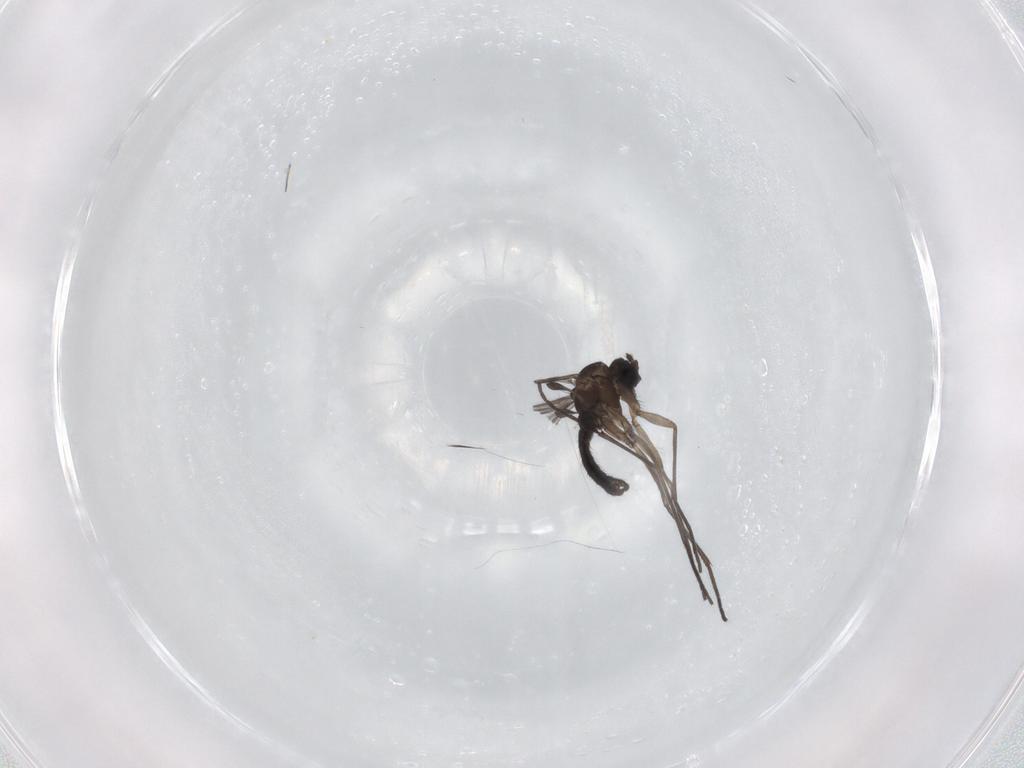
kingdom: Animalia
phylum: Arthropoda
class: Insecta
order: Diptera
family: Sciaridae
